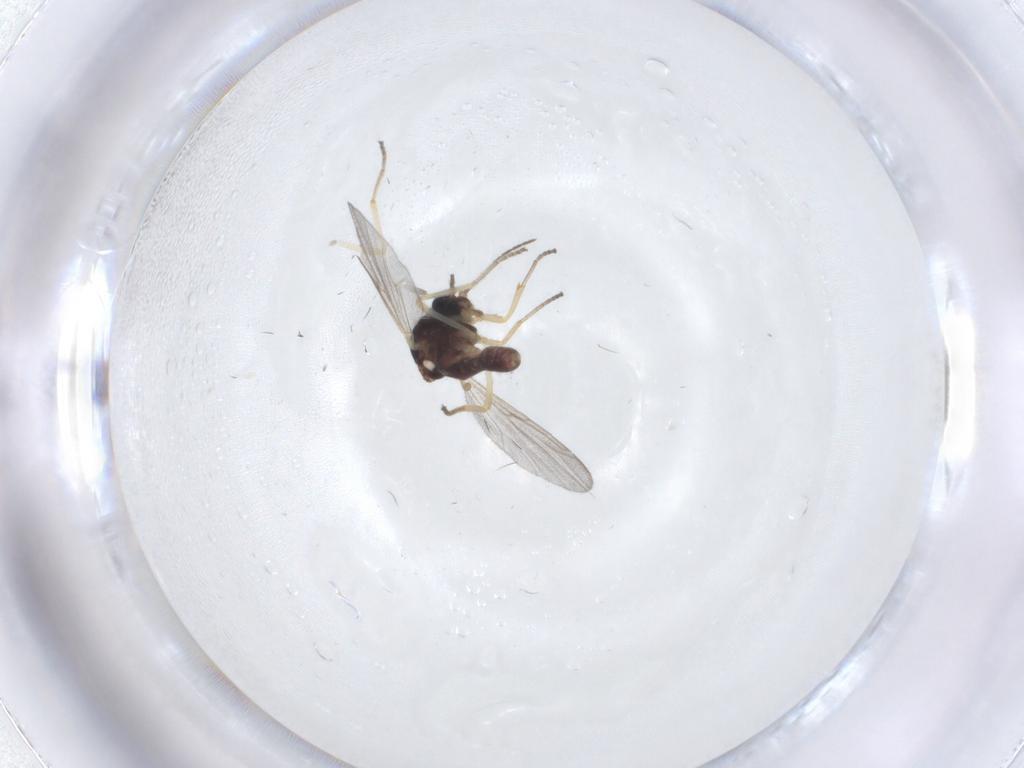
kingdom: Animalia
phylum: Arthropoda
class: Insecta
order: Diptera
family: Ceratopogonidae
